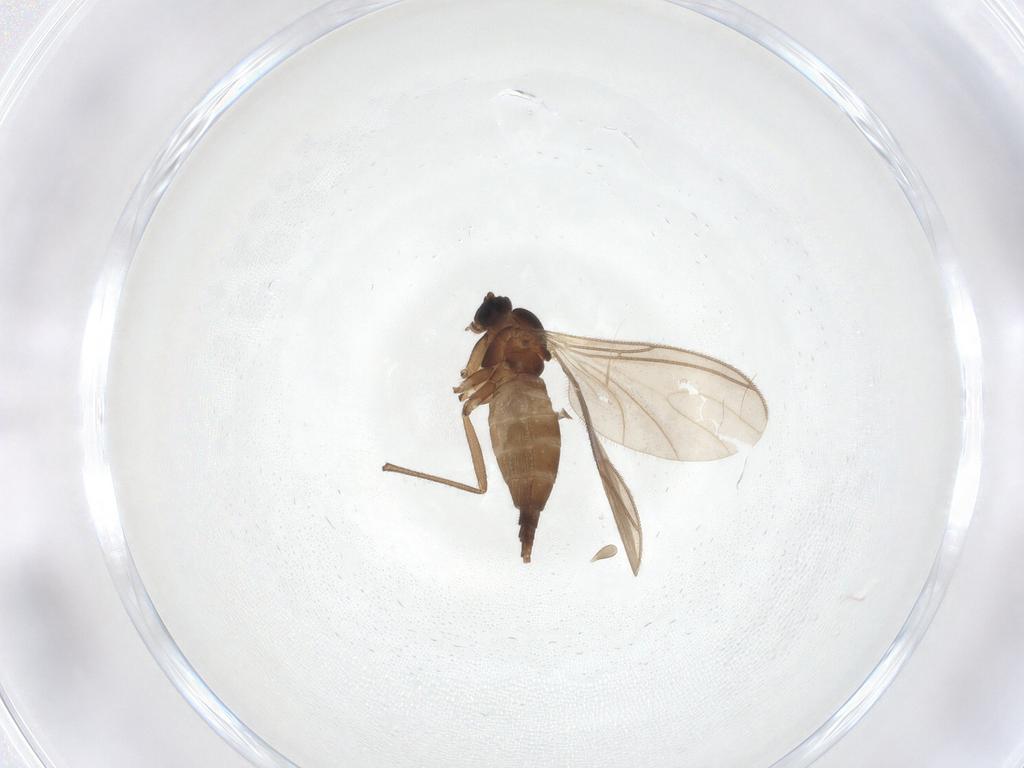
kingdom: Animalia
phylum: Arthropoda
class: Insecta
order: Diptera
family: Sciaridae
